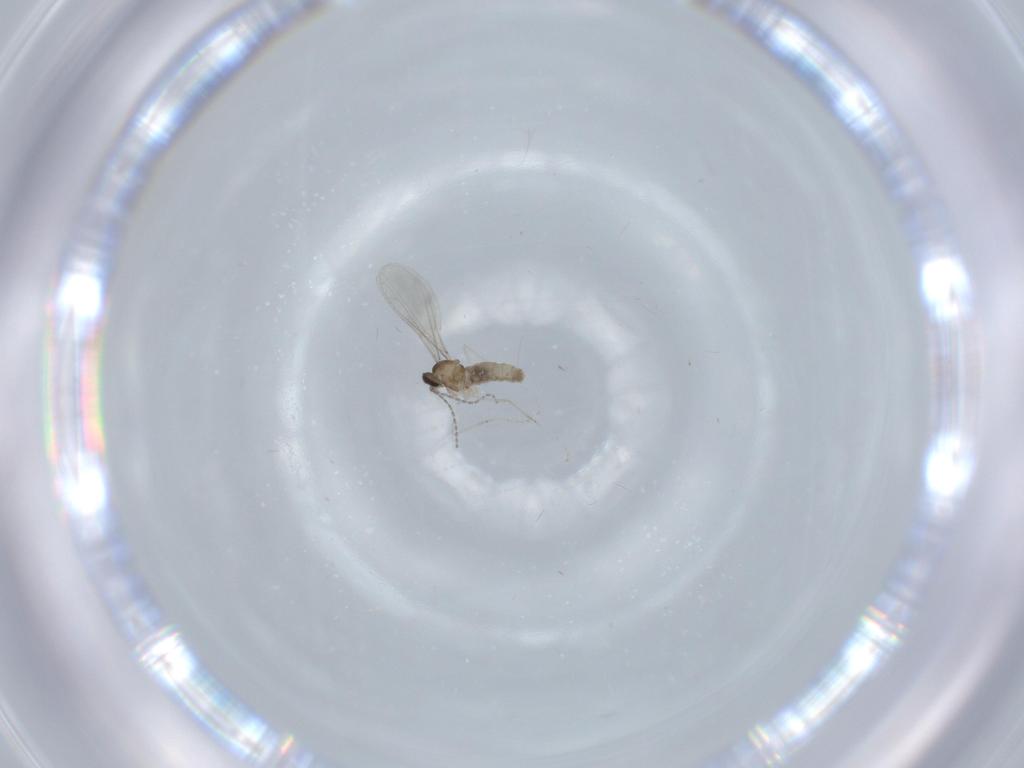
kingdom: Animalia
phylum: Arthropoda
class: Insecta
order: Diptera
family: Cecidomyiidae
